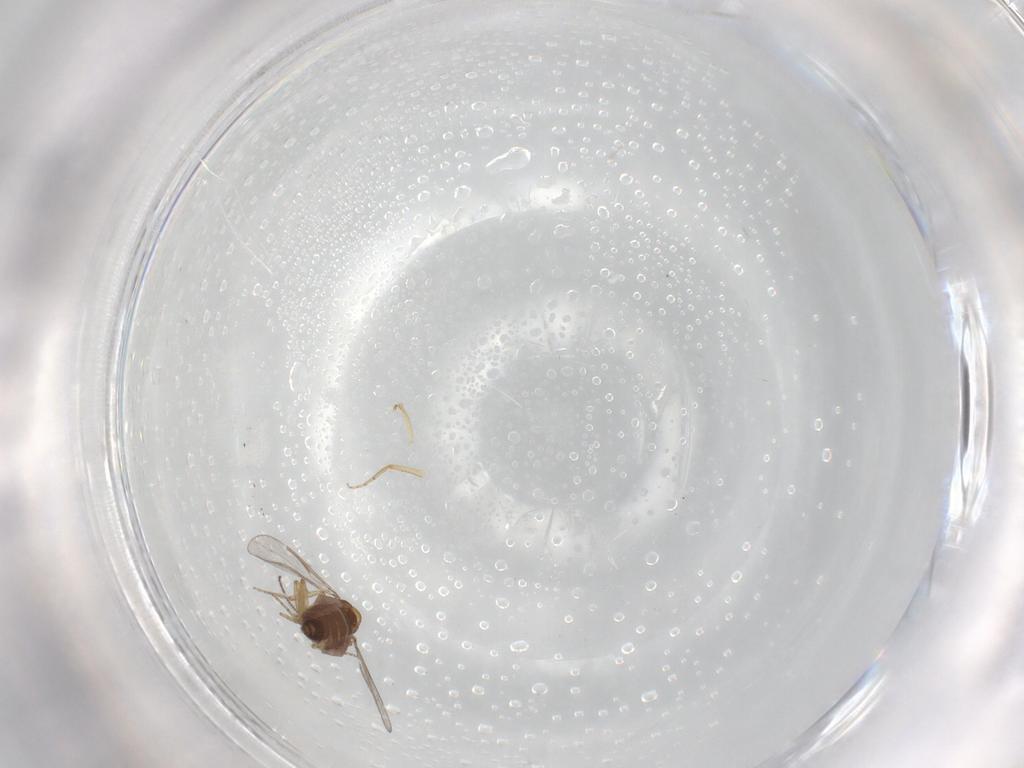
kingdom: Animalia
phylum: Arthropoda
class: Insecta
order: Diptera
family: Ceratopogonidae
